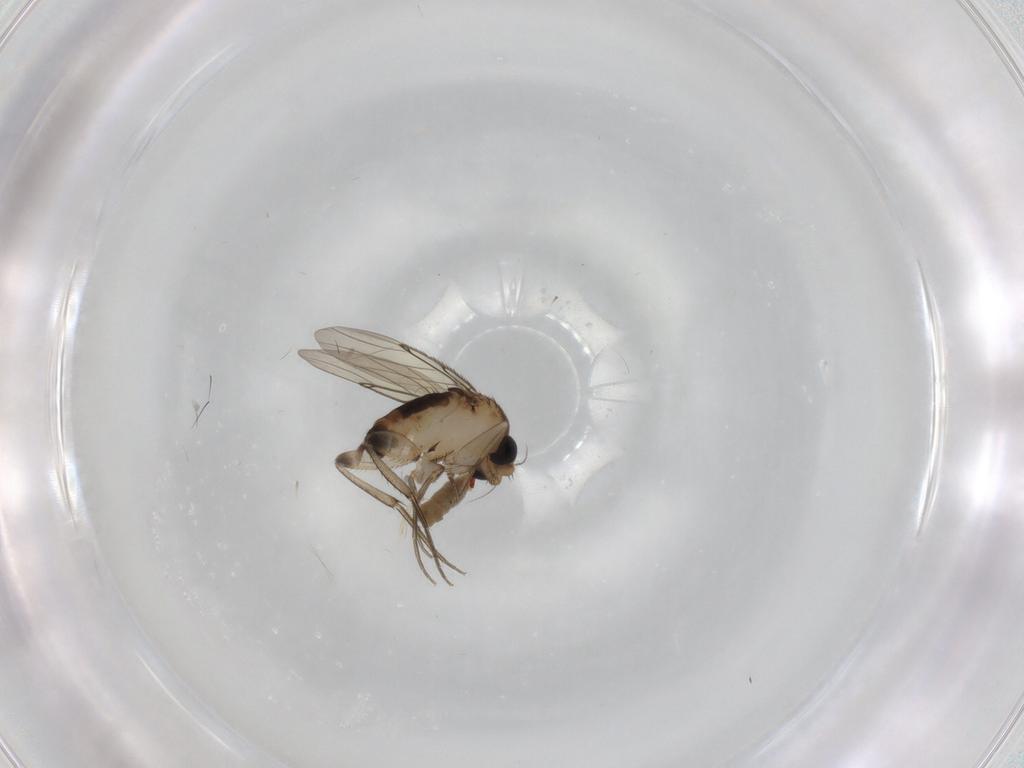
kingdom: Animalia
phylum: Arthropoda
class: Insecta
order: Diptera
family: Phoridae
